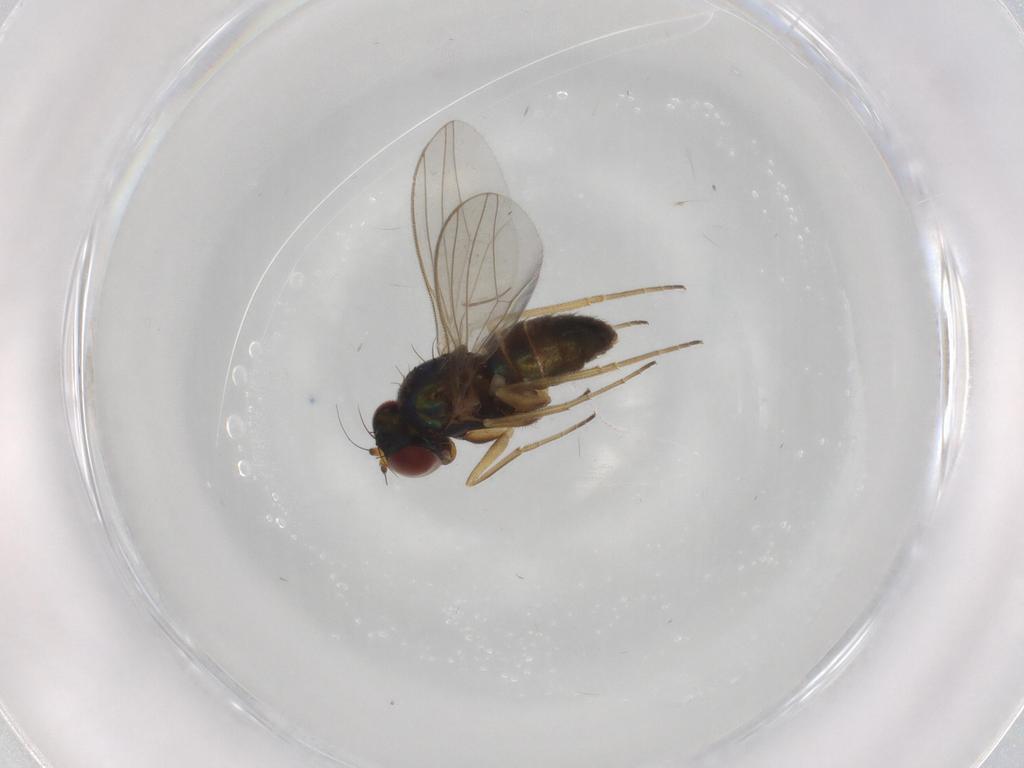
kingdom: Animalia
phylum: Arthropoda
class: Insecta
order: Diptera
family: Dolichopodidae
